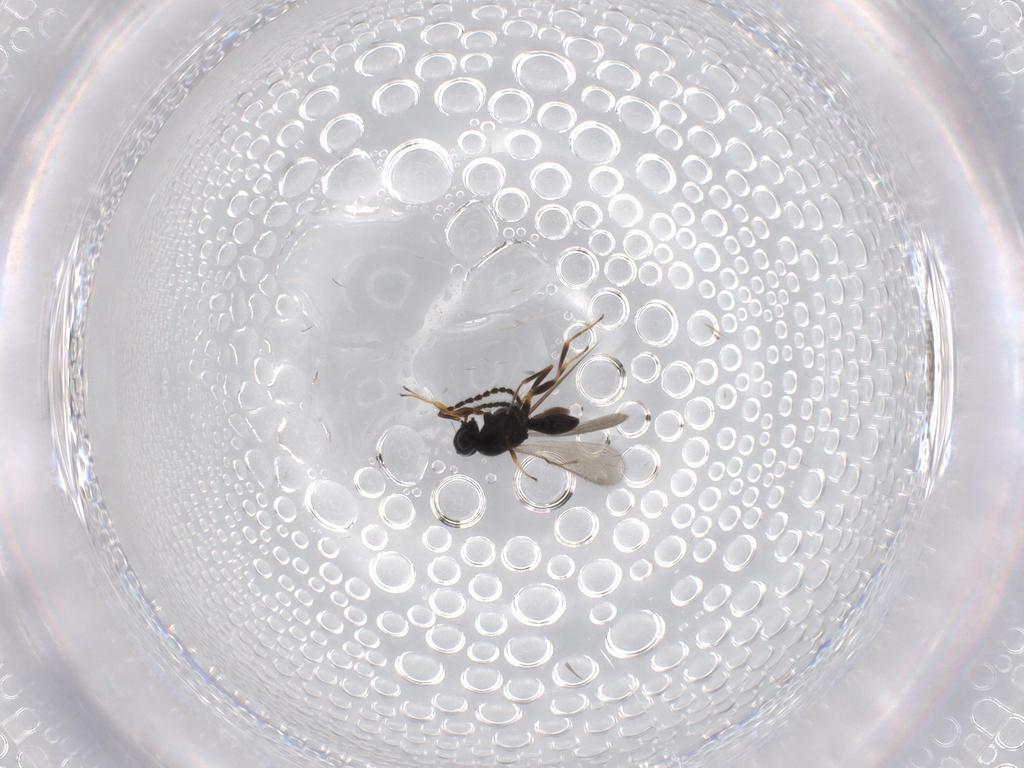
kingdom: Animalia
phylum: Arthropoda
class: Insecta
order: Hymenoptera
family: Scelionidae
